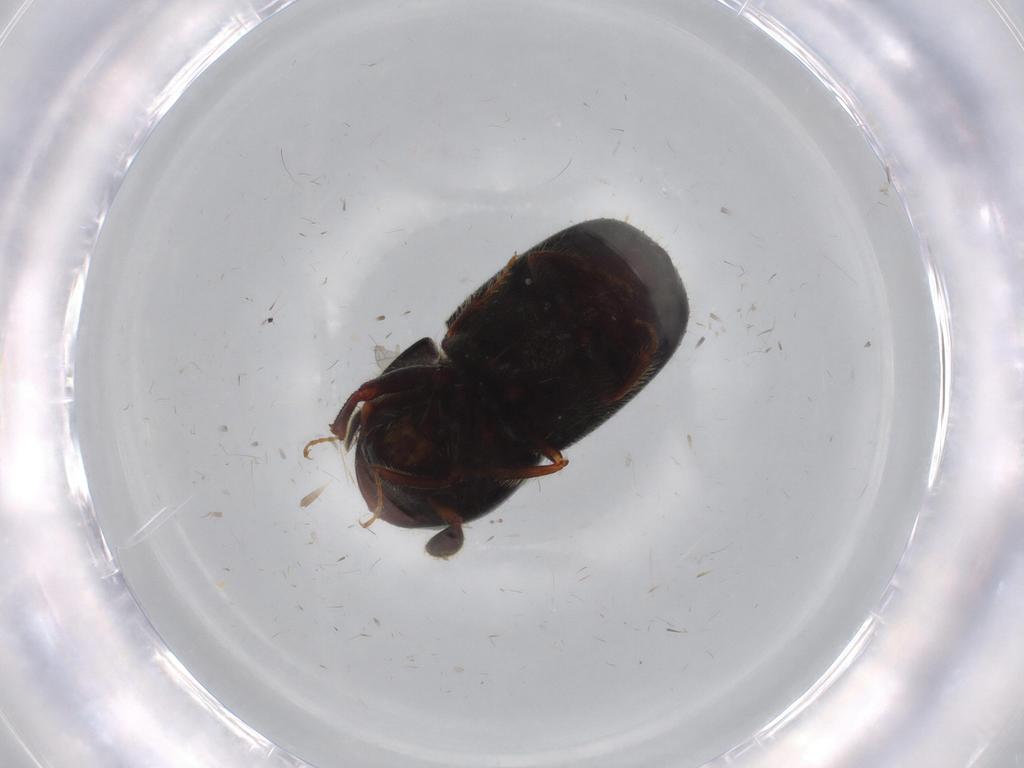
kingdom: Animalia
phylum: Arthropoda
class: Insecta
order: Coleoptera
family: Curculionidae
